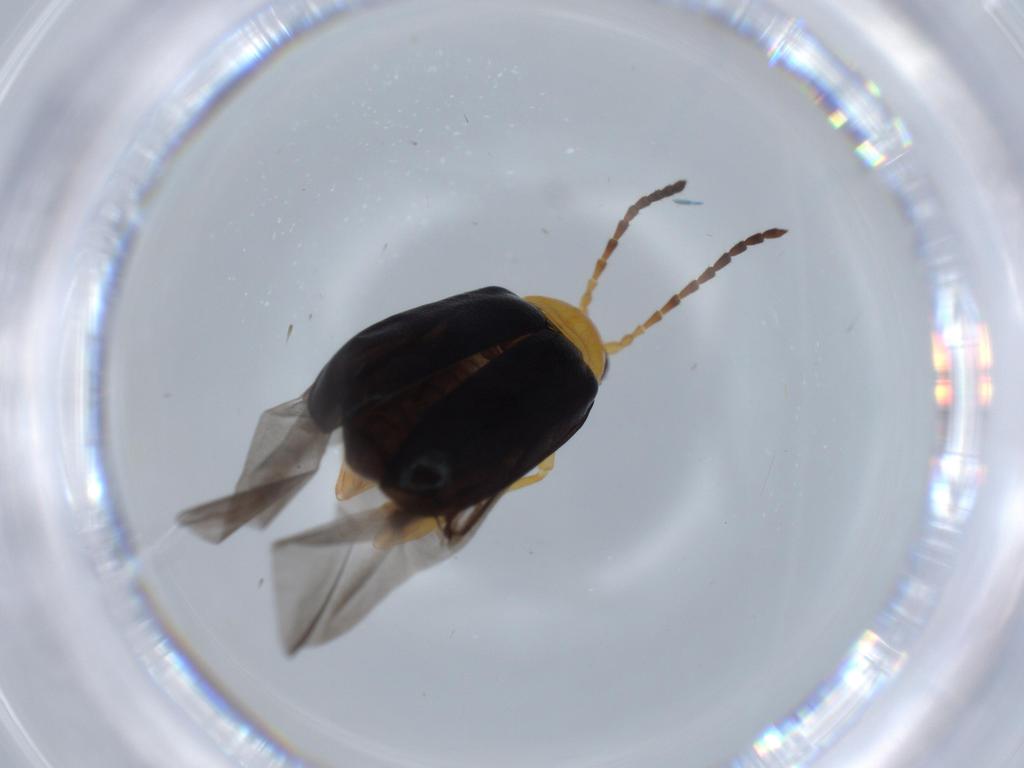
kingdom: Animalia
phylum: Arthropoda
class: Insecta
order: Coleoptera
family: Chrysomelidae
